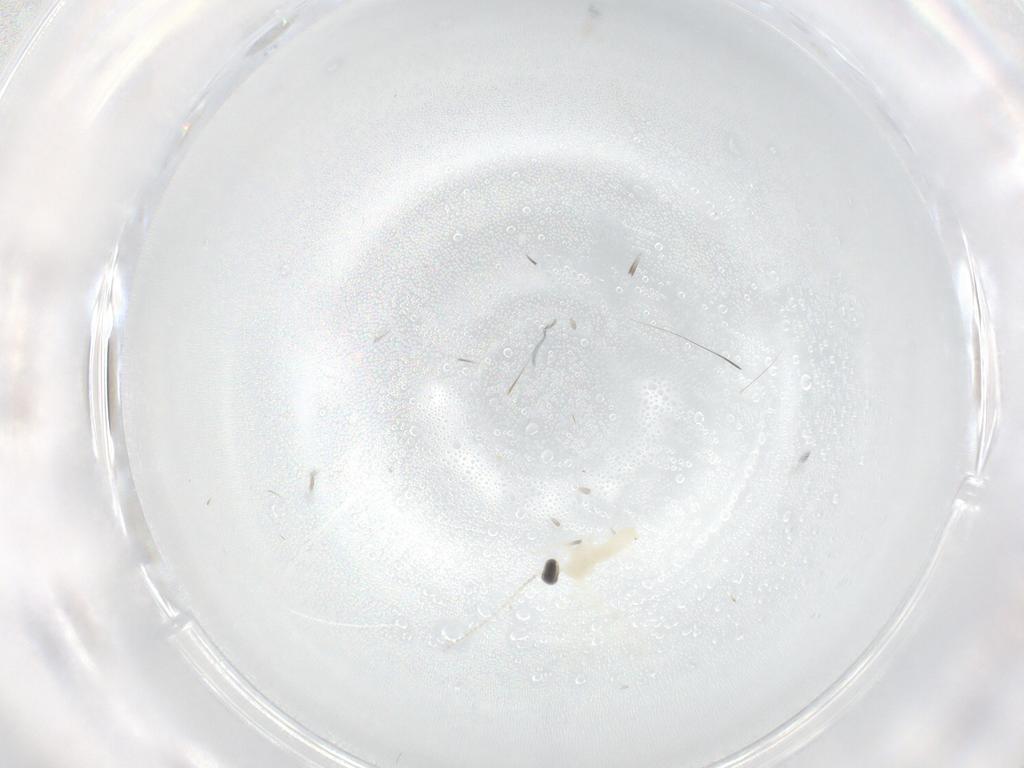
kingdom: Animalia
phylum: Arthropoda
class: Insecta
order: Diptera
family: Cecidomyiidae
